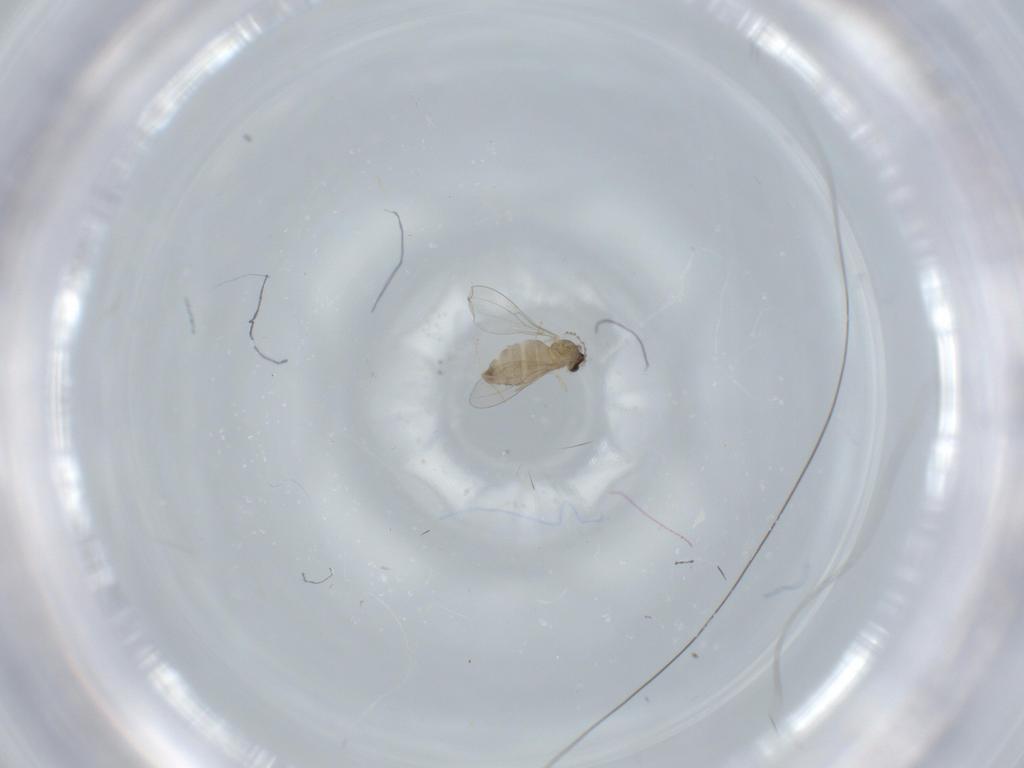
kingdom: Animalia
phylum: Arthropoda
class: Insecta
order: Diptera
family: Cecidomyiidae
